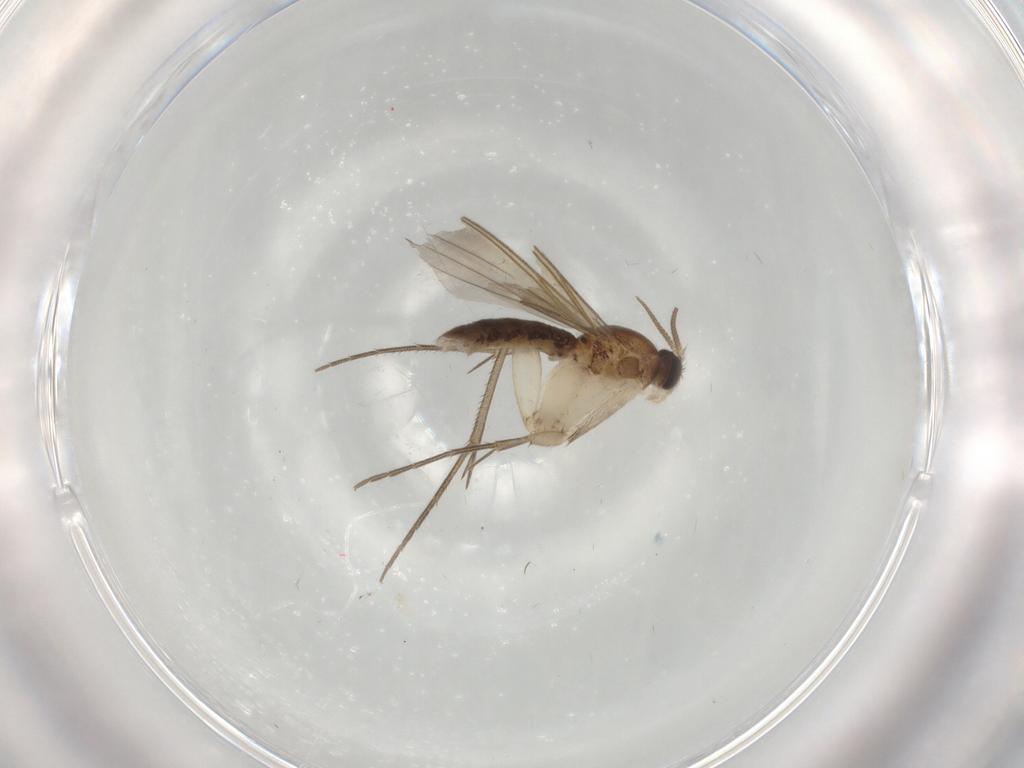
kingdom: Animalia
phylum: Arthropoda
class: Insecta
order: Diptera
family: Mycetophilidae
